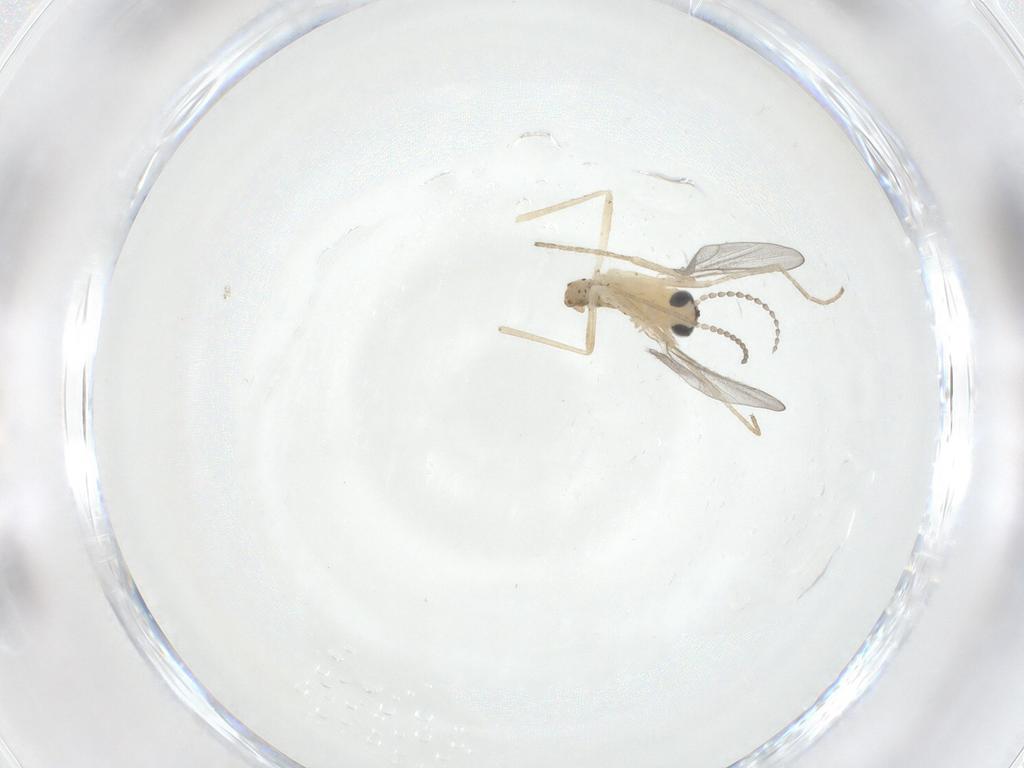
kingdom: Animalia
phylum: Arthropoda
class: Insecta
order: Diptera
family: Cecidomyiidae
